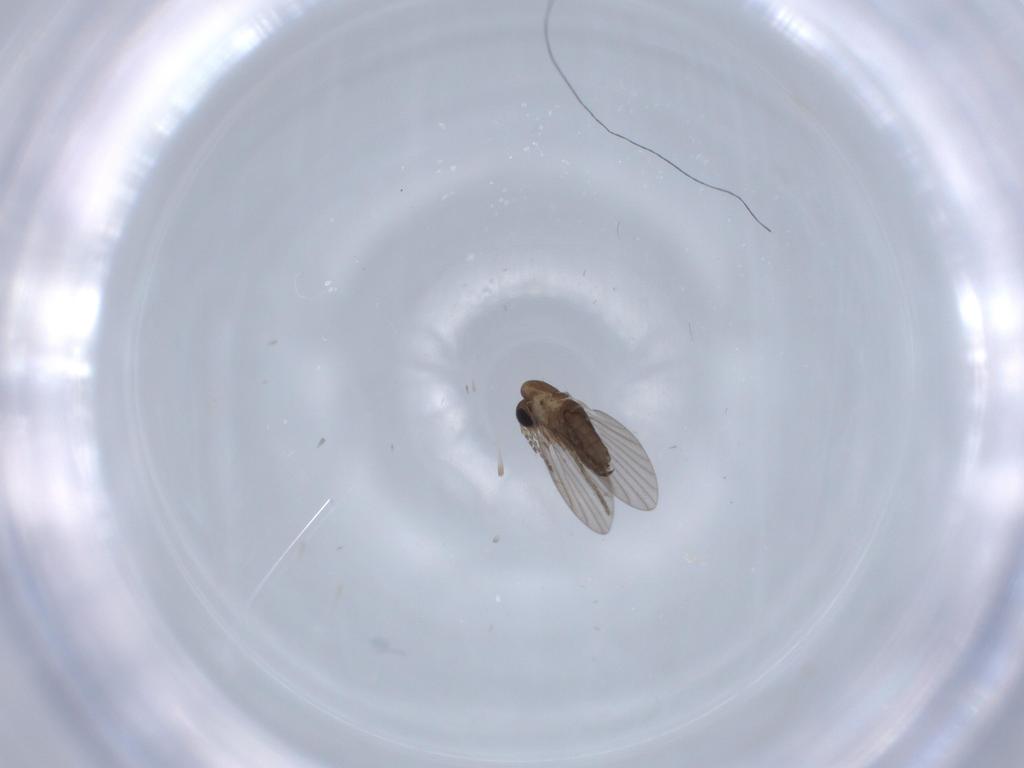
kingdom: Animalia
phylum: Arthropoda
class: Insecta
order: Diptera
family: Psychodidae
